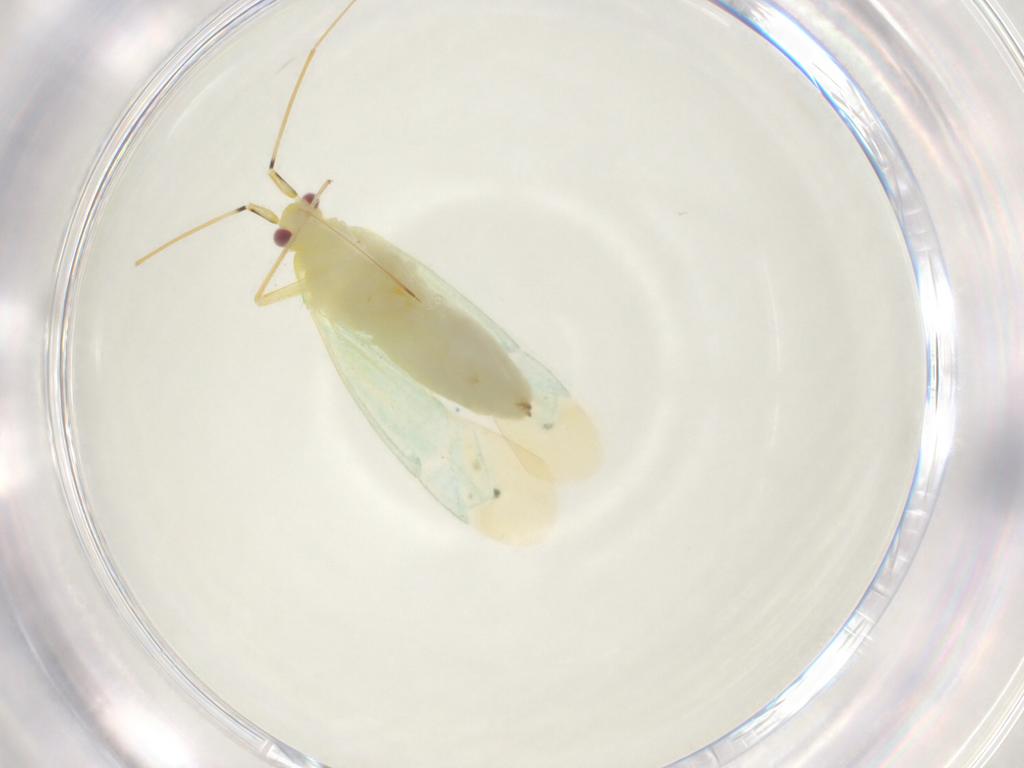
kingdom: Animalia
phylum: Arthropoda
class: Insecta
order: Hemiptera
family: Miridae
